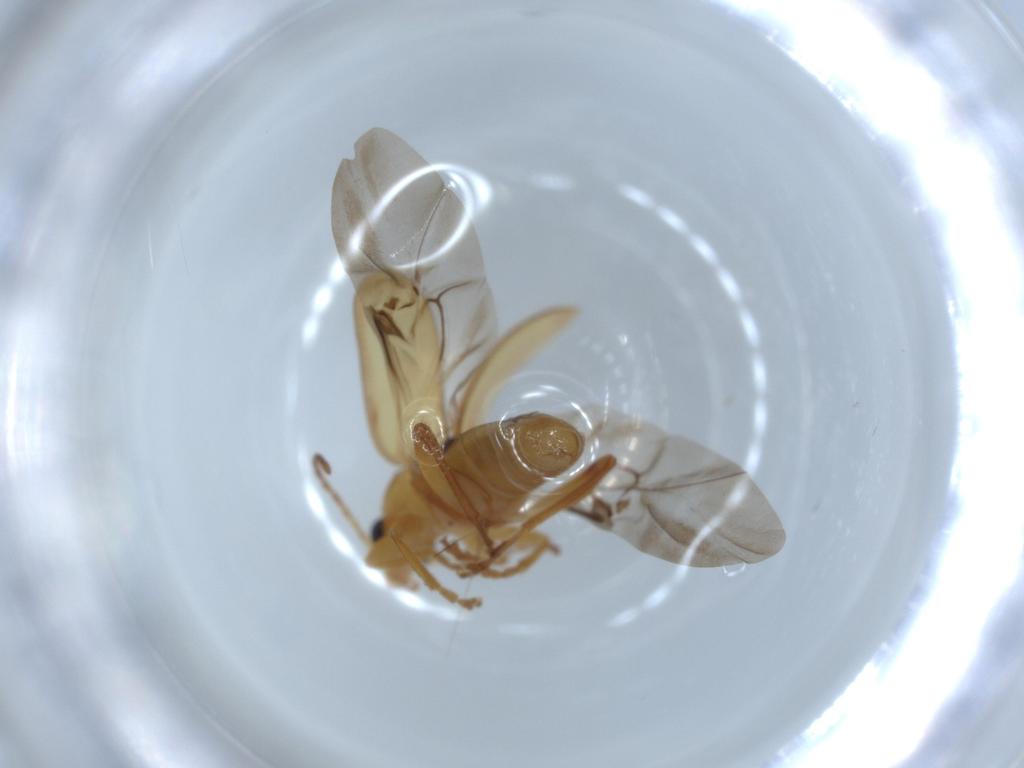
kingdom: Animalia
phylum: Arthropoda
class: Insecta
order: Coleoptera
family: Chrysomelidae
